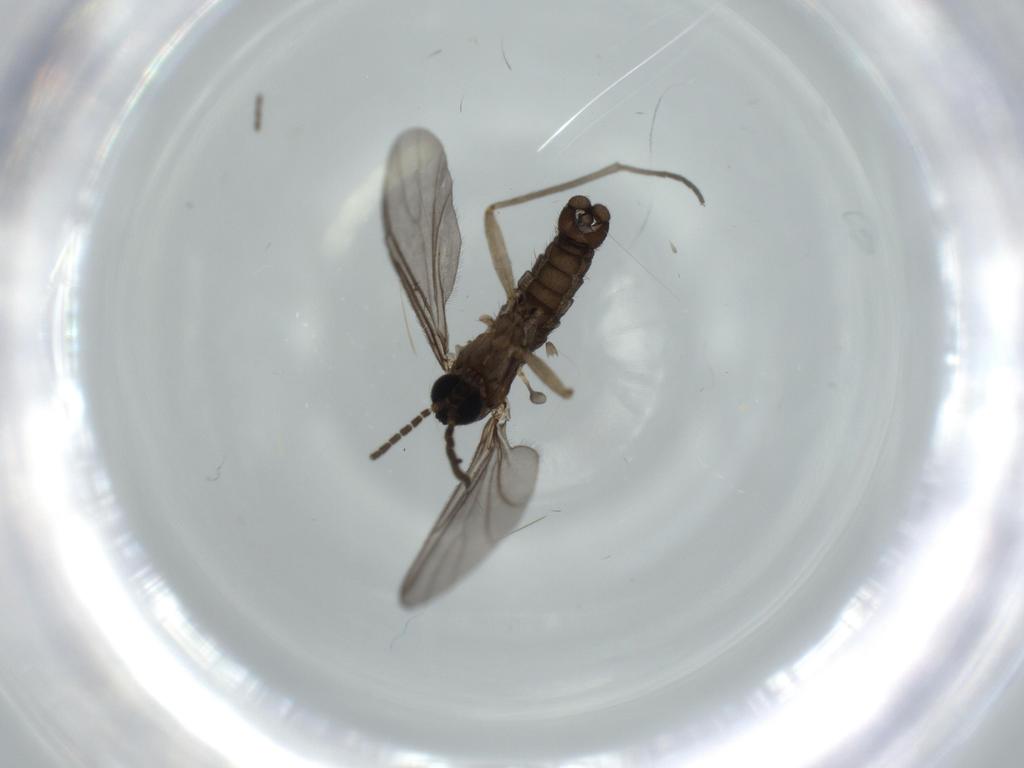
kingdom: Animalia
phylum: Arthropoda
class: Insecta
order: Diptera
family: Sciaridae
